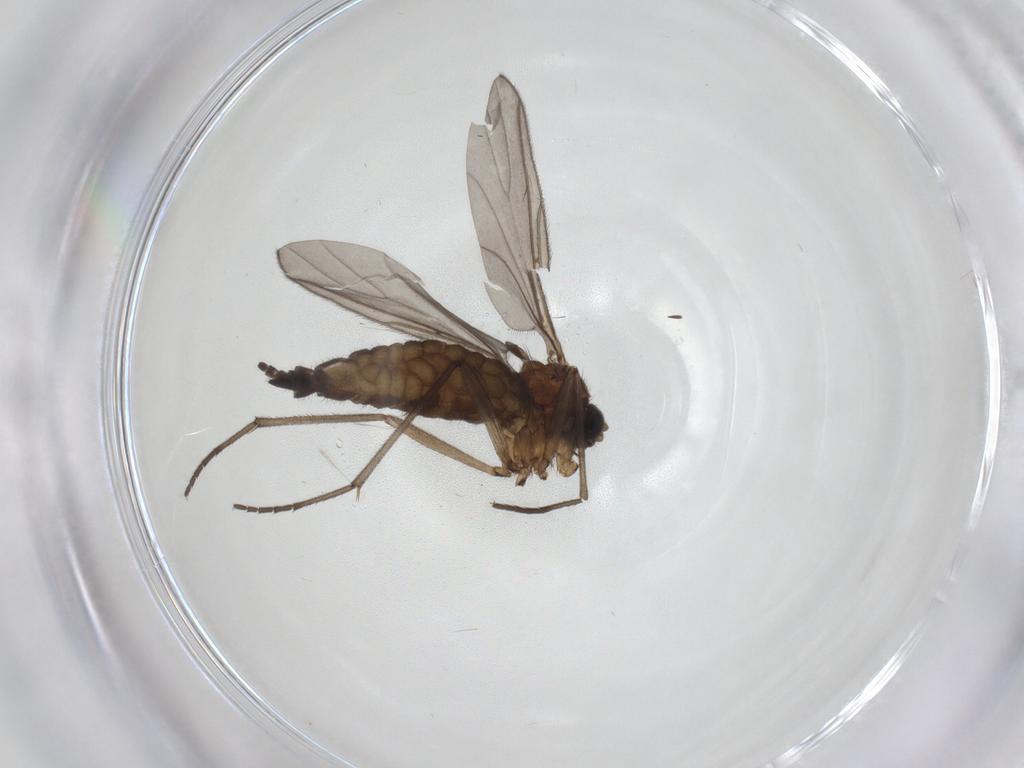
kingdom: Animalia
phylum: Arthropoda
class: Insecta
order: Diptera
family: Sciaridae
